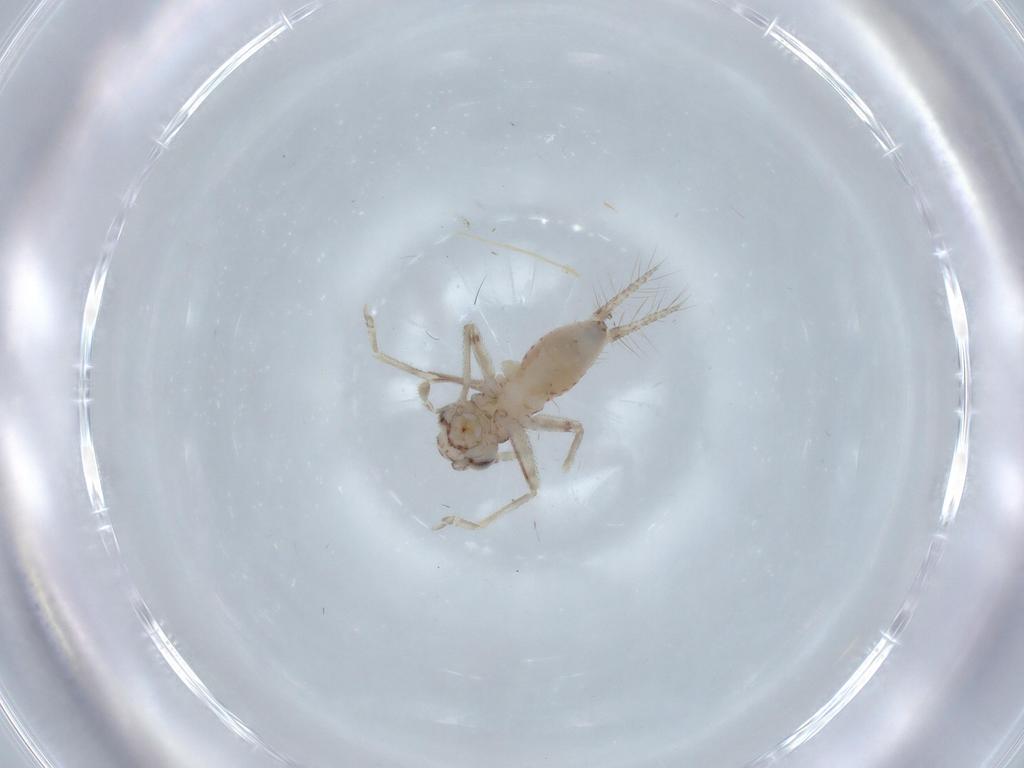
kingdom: Animalia
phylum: Arthropoda
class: Insecta
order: Orthoptera
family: Trigonidiidae
